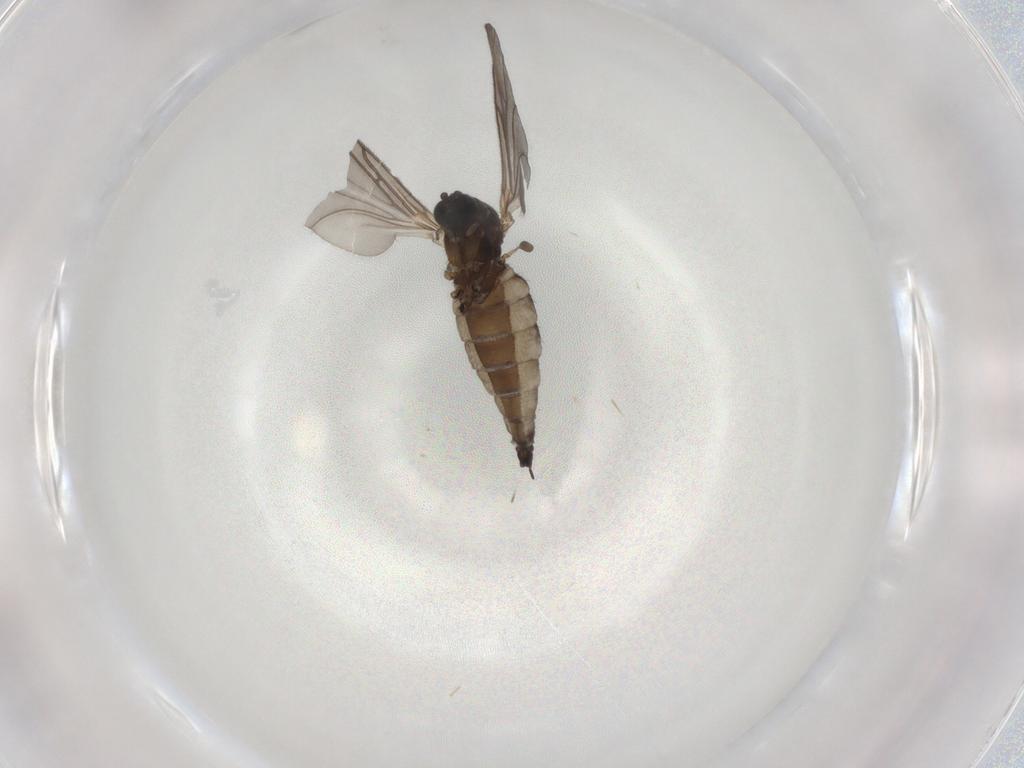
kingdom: Animalia
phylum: Arthropoda
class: Insecta
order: Diptera
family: Sciaridae
